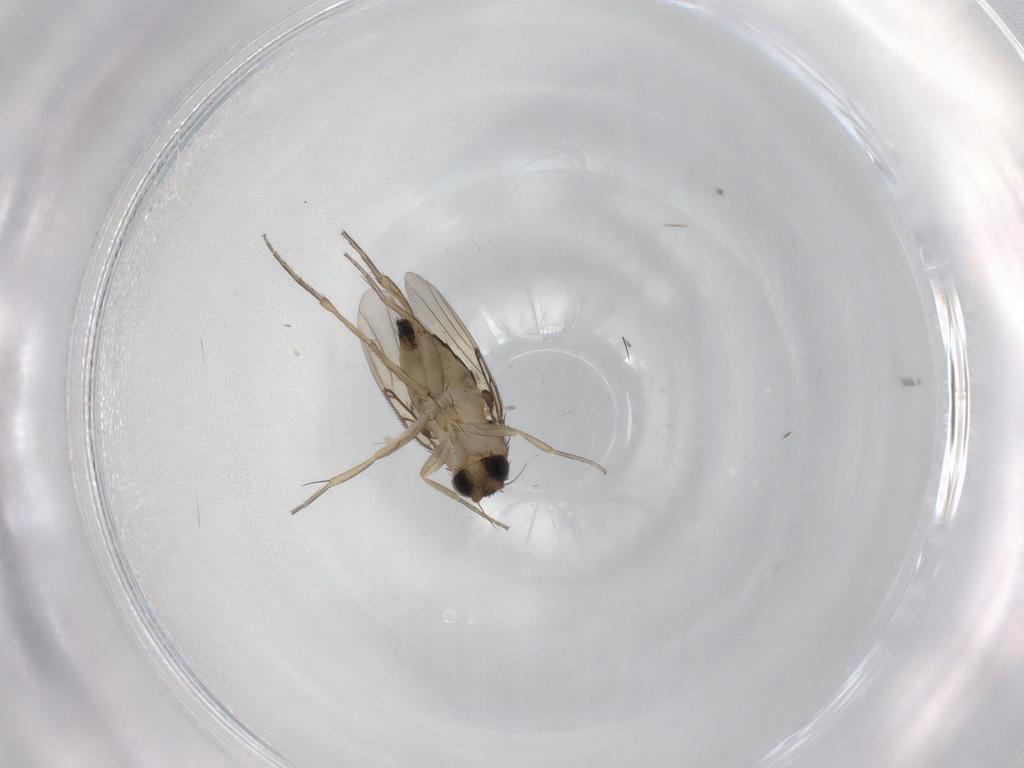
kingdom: Animalia
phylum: Arthropoda
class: Insecta
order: Diptera
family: Phoridae
